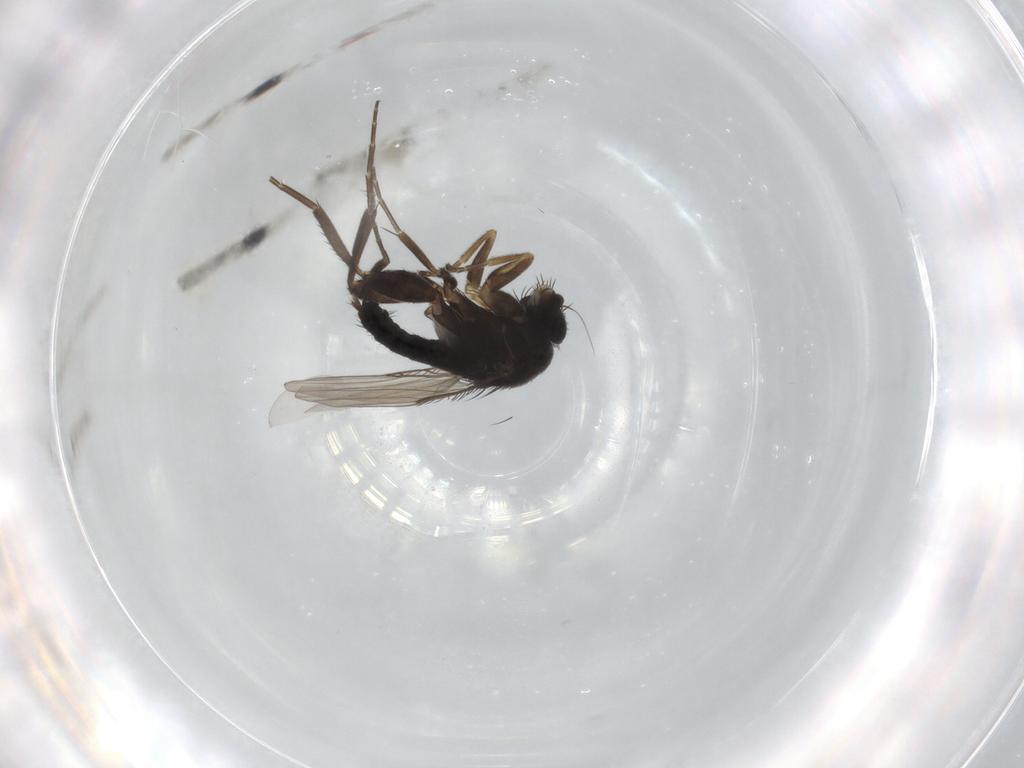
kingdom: Animalia
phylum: Arthropoda
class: Insecta
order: Diptera
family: Phoridae
